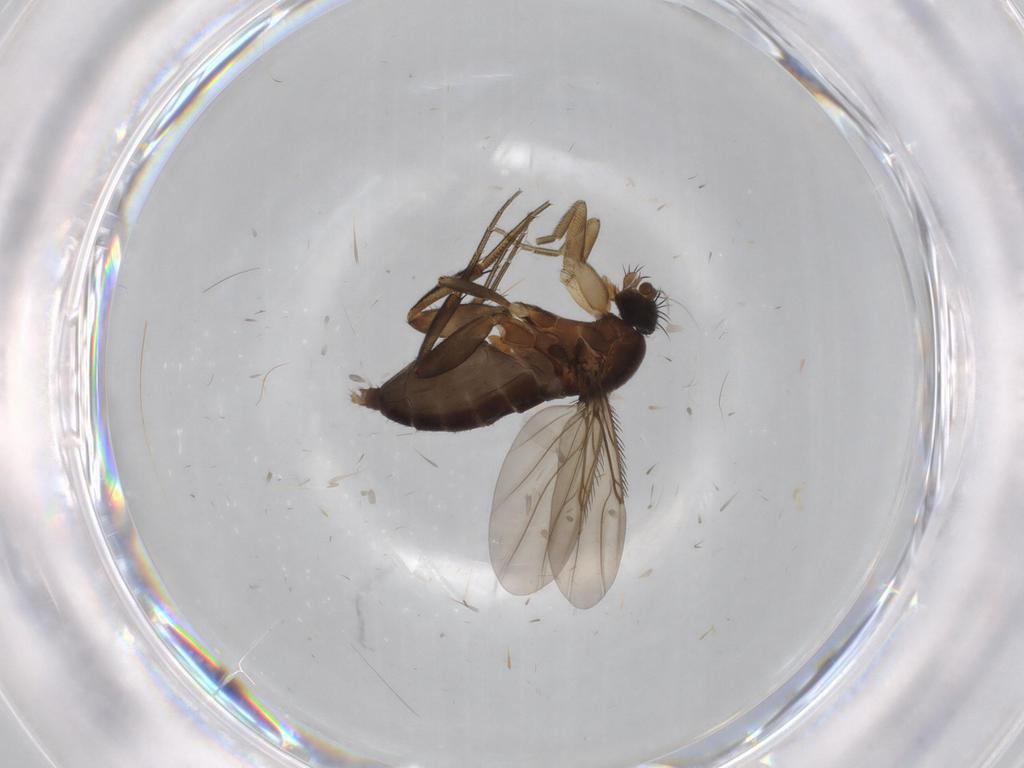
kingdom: Animalia
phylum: Arthropoda
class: Insecta
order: Diptera
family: Phoridae
